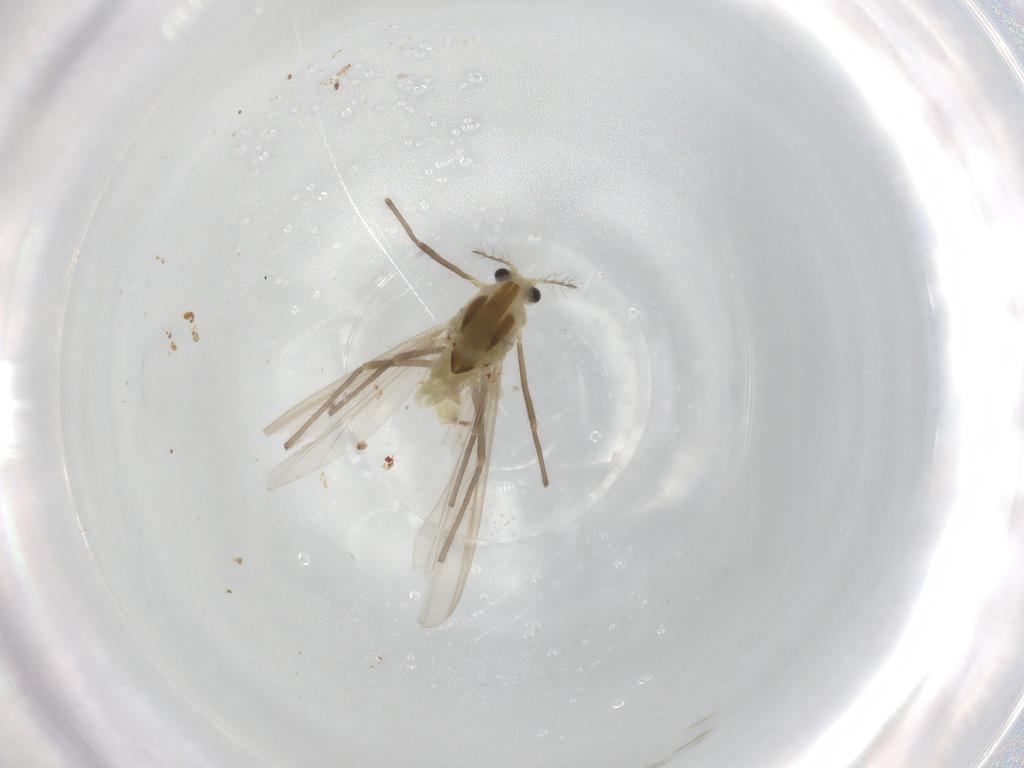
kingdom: Animalia
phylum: Arthropoda
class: Insecta
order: Diptera
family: Chironomidae
